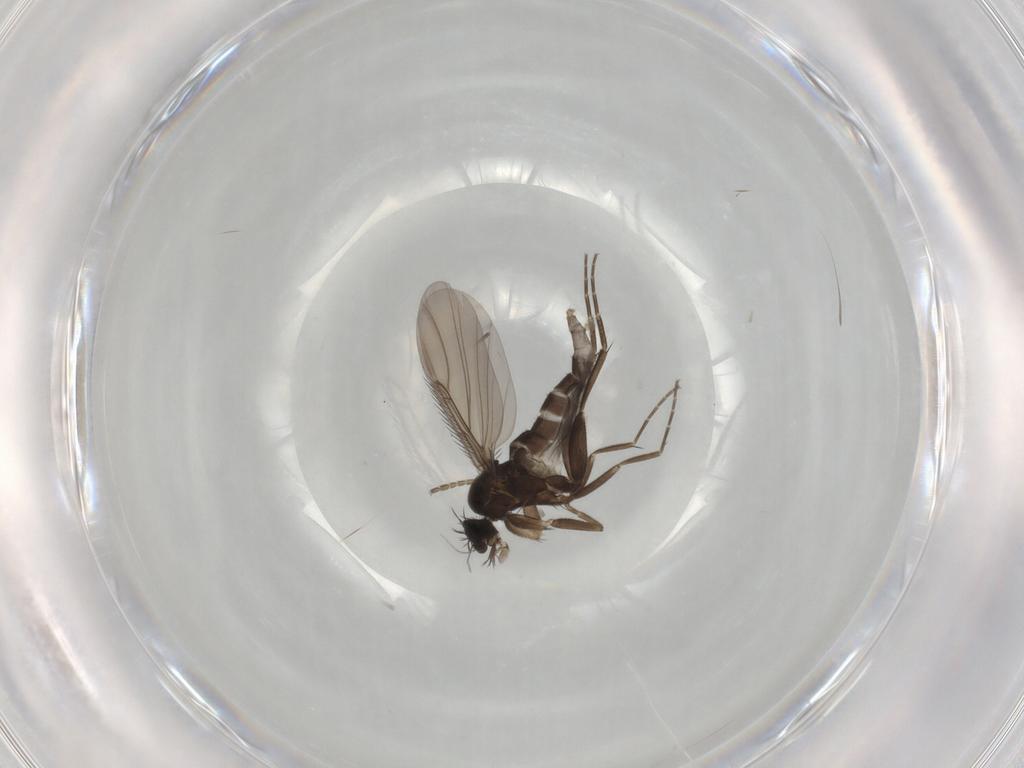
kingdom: Animalia
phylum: Arthropoda
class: Insecta
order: Diptera
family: Phoridae
